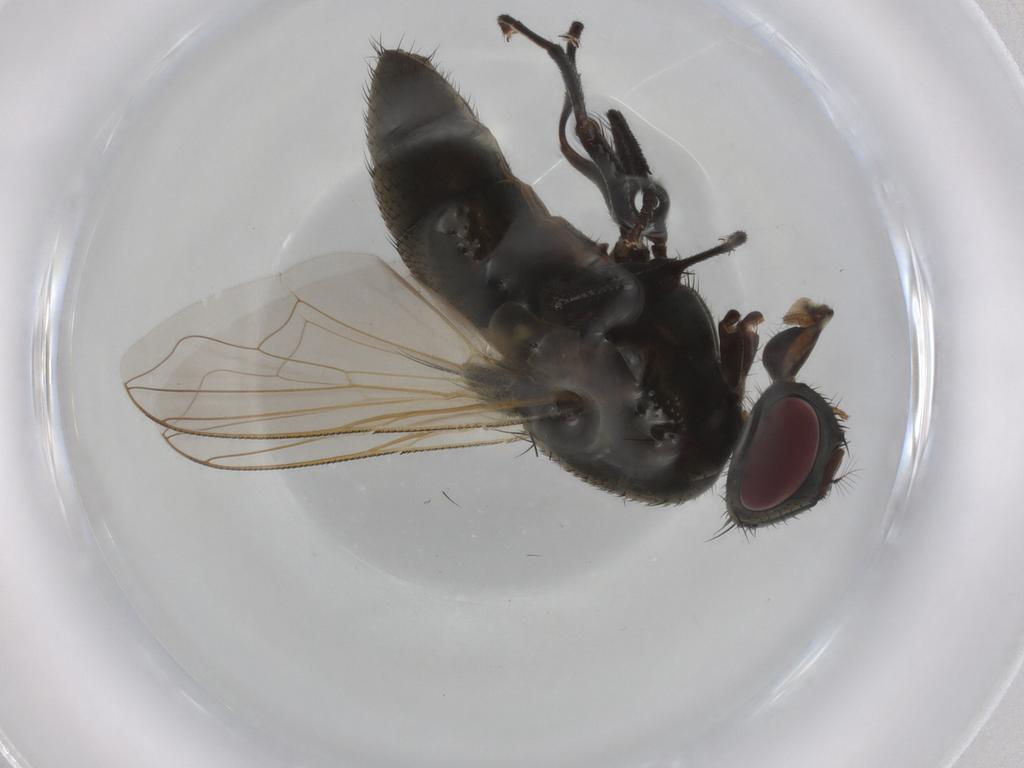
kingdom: Animalia
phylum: Arthropoda
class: Insecta
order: Diptera
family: Muscidae
